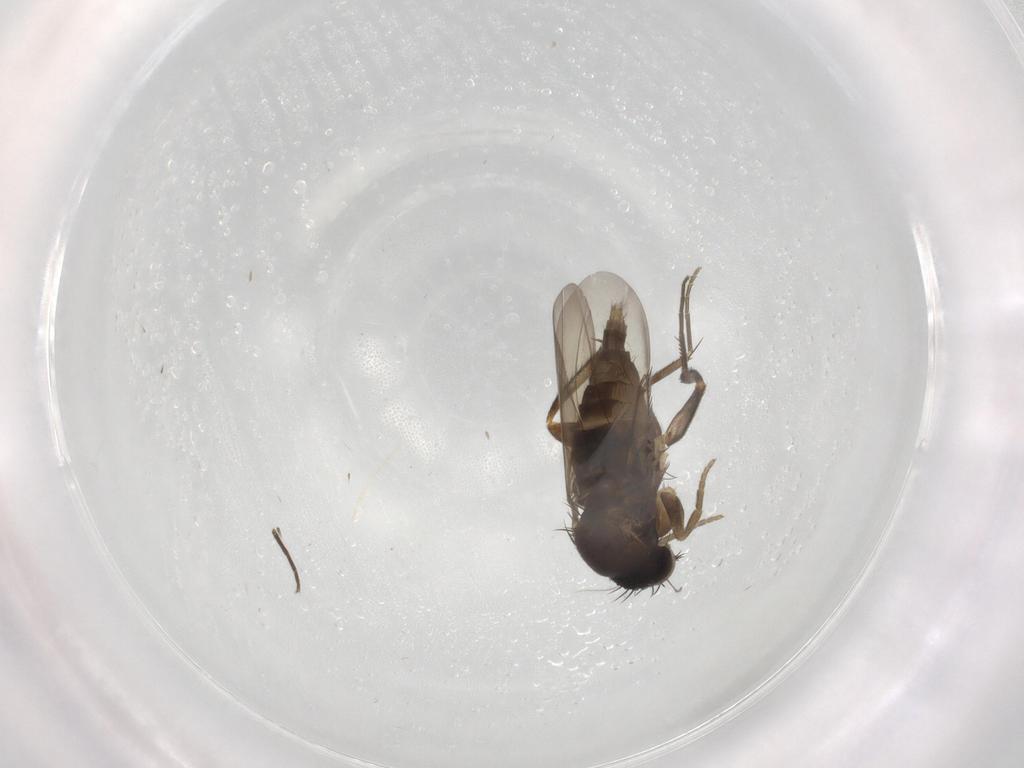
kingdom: Animalia
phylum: Arthropoda
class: Insecta
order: Diptera
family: Phoridae
